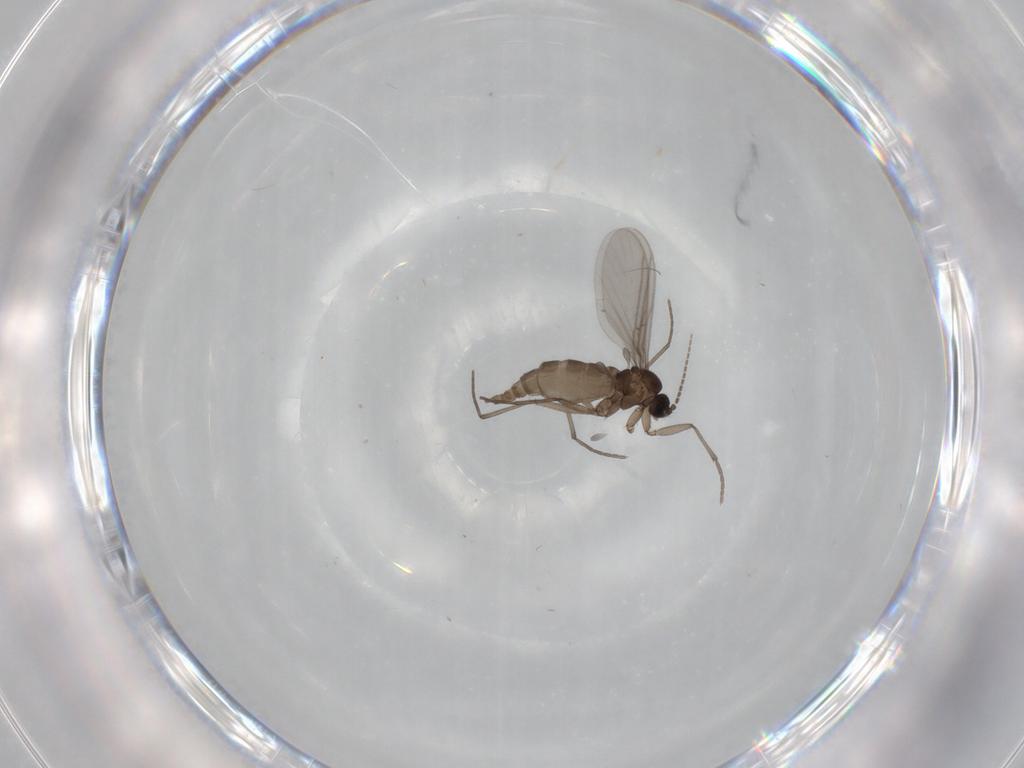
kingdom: Animalia
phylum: Arthropoda
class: Insecta
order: Diptera
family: Sciaridae
